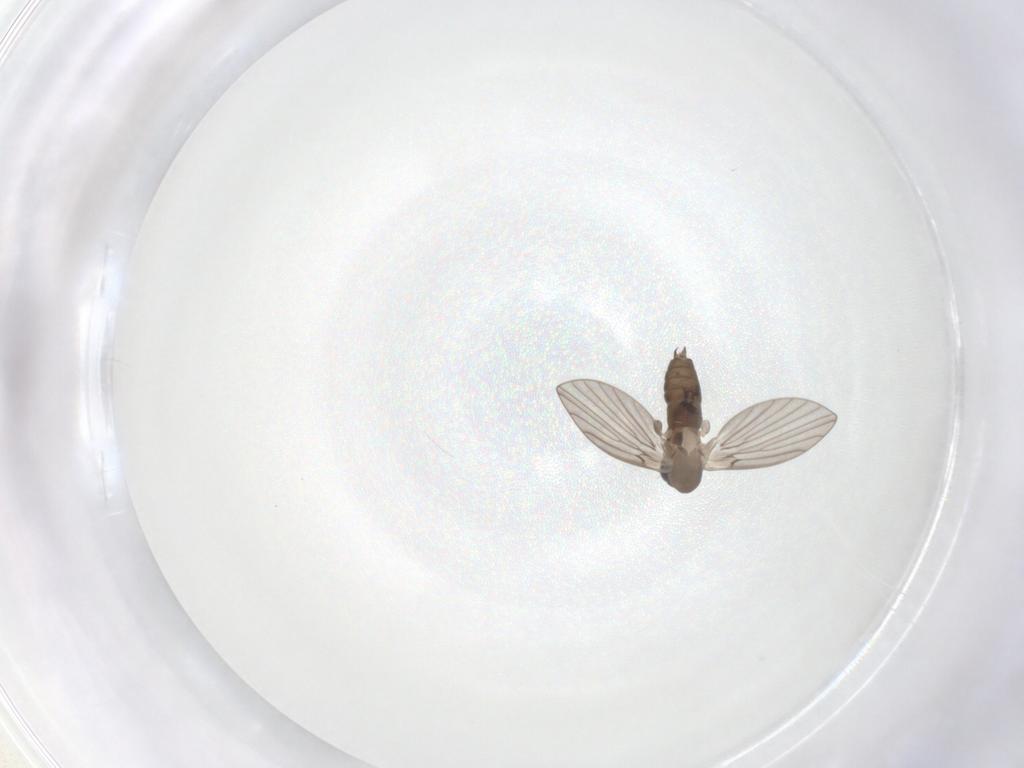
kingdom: Animalia
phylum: Arthropoda
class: Insecta
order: Diptera
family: Psychodidae
